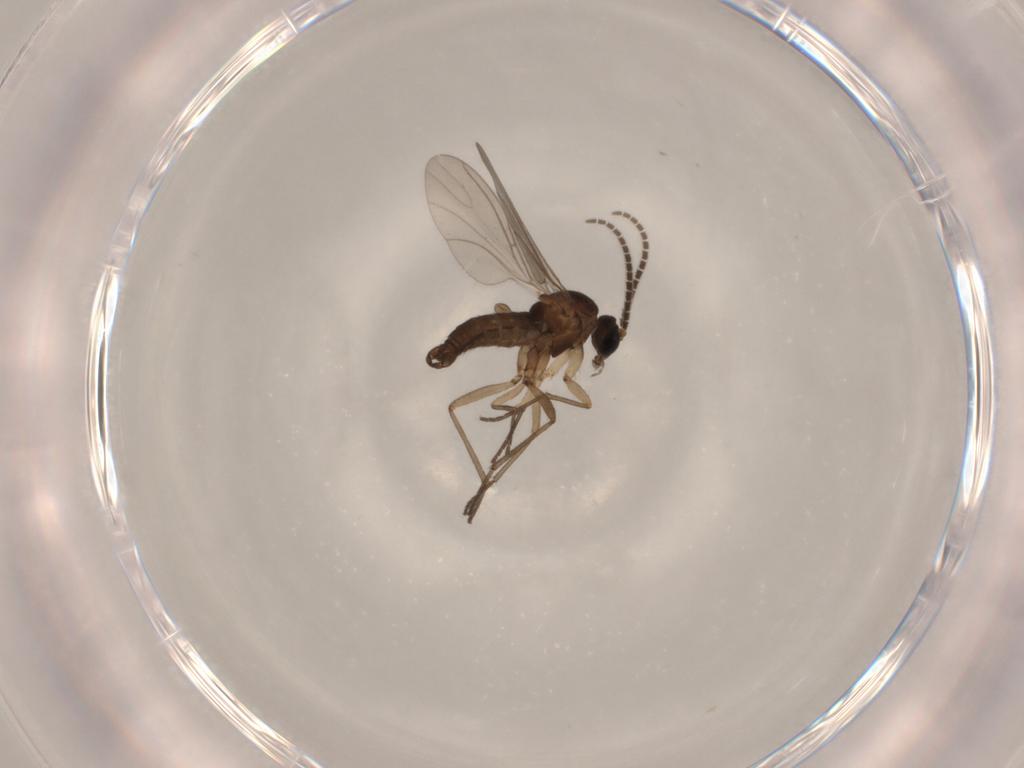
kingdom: Animalia
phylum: Arthropoda
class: Insecta
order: Diptera
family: Sciaridae
